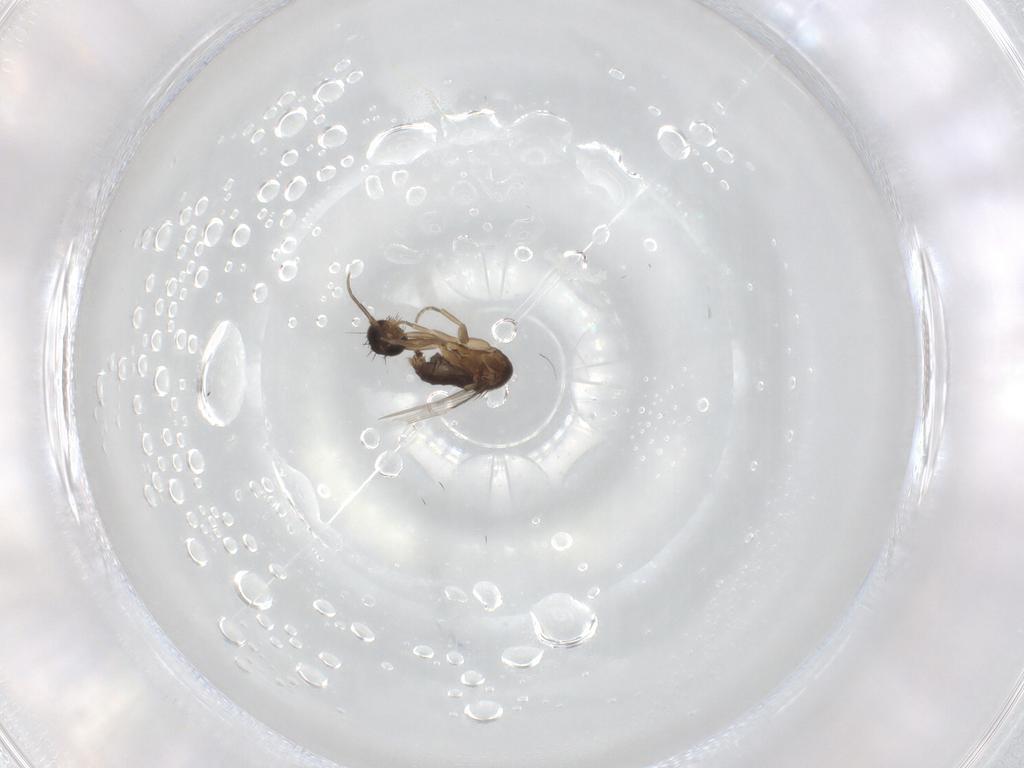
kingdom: Animalia
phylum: Arthropoda
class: Insecta
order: Diptera
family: Phoridae
